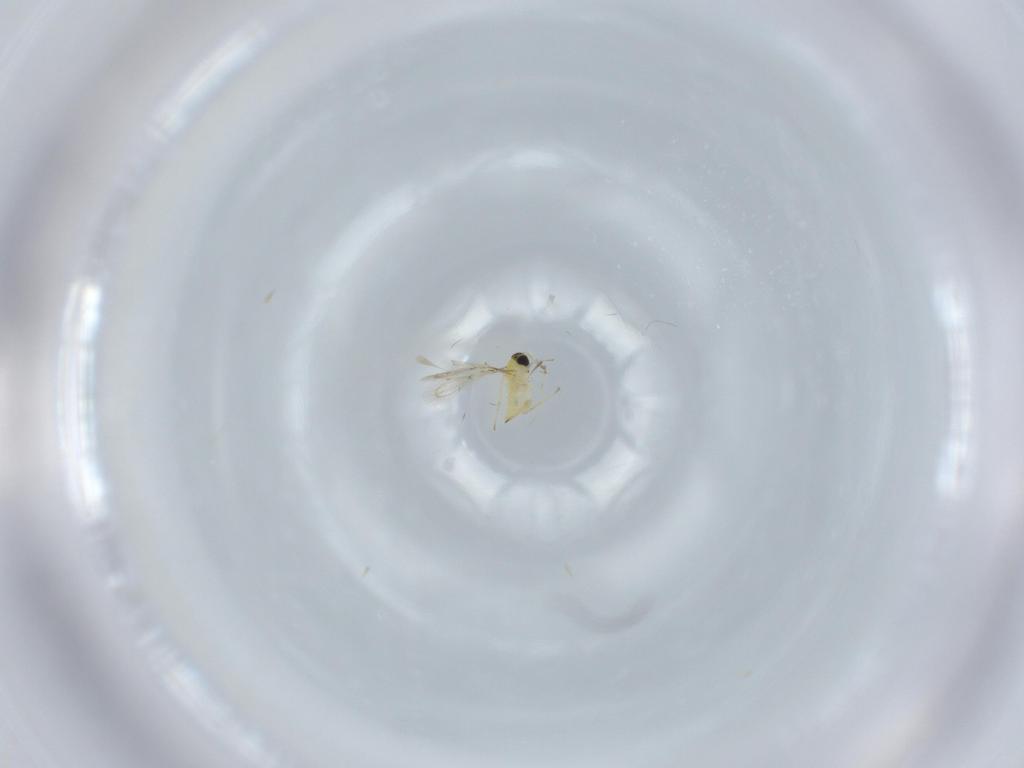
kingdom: Animalia
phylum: Arthropoda
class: Insecta
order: Hymenoptera
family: Trichogrammatidae
